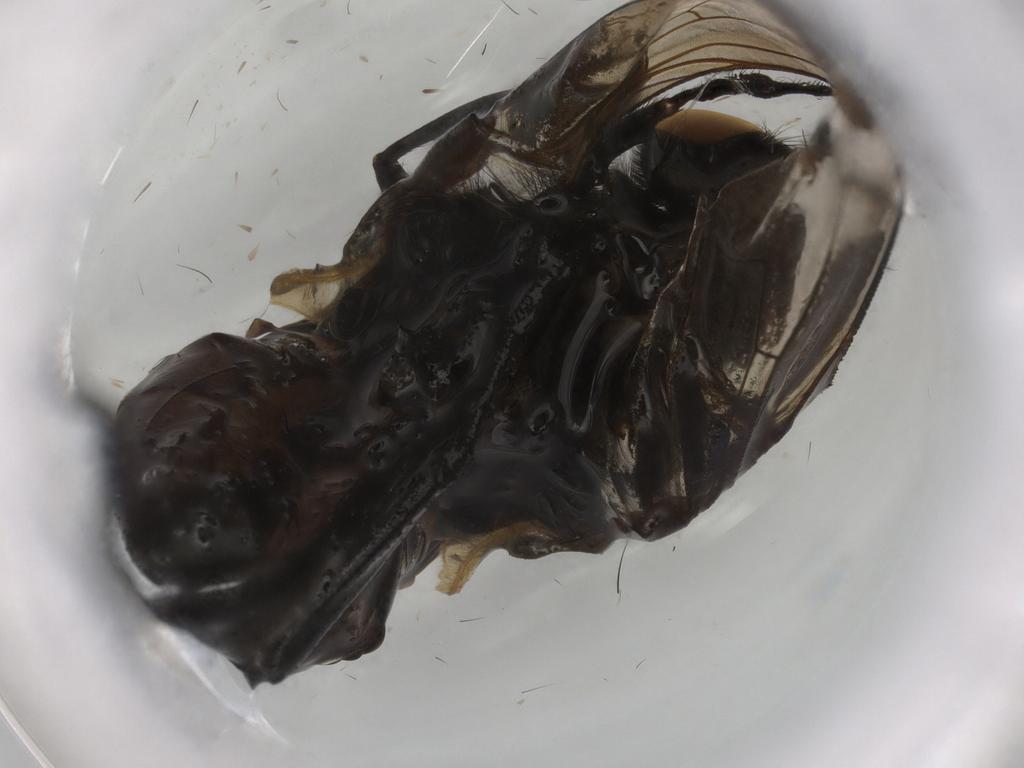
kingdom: Animalia
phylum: Arthropoda
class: Insecta
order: Diptera
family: Muscidae
